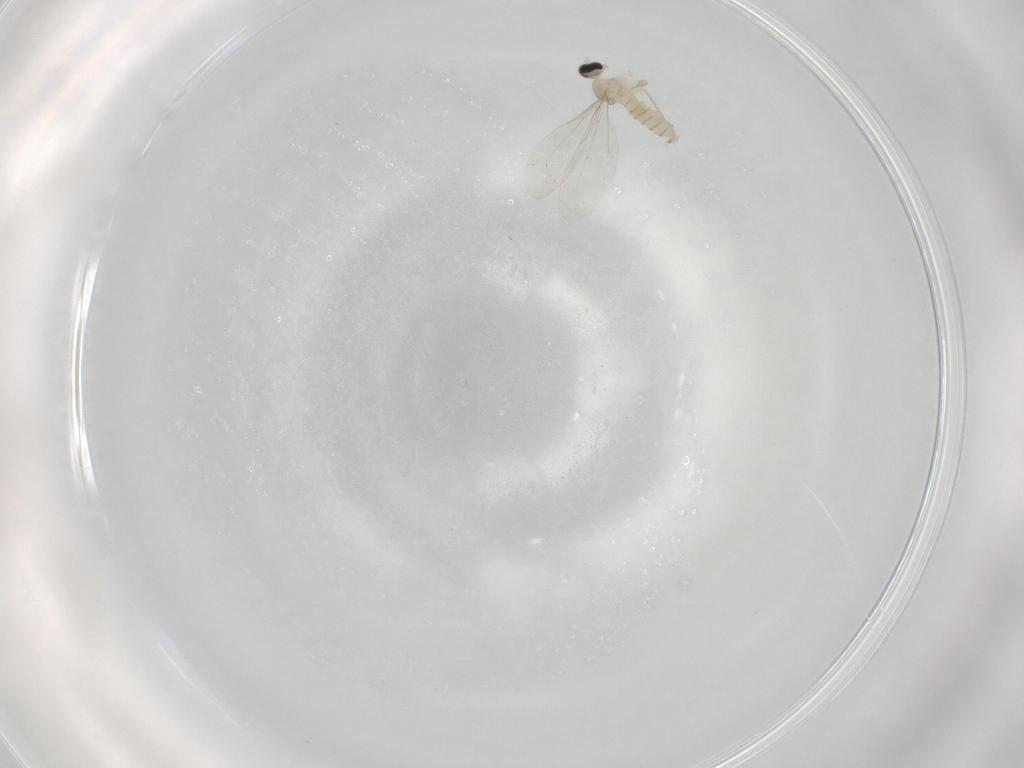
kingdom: Animalia
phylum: Arthropoda
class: Insecta
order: Diptera
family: Cecidomyiidae
